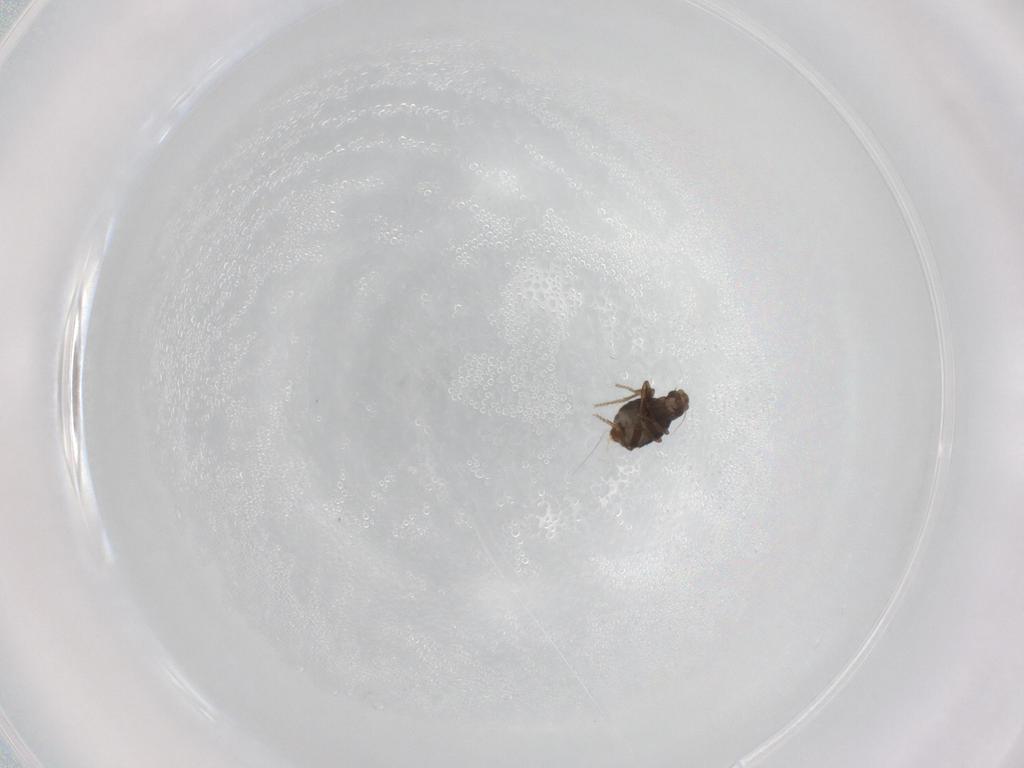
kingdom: Animalia
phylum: Arthropoda
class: Insecta
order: Diptera
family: Phoridae
